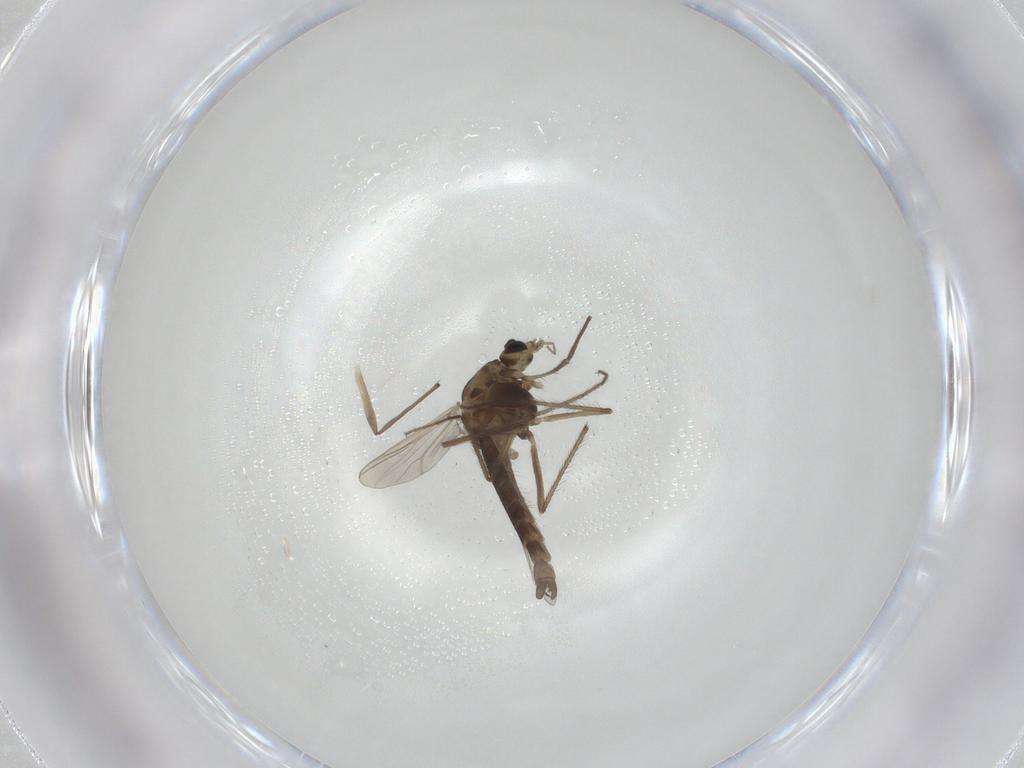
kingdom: Animalia
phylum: Arthropoda
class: Insecta
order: Diptera
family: Chironomidae
